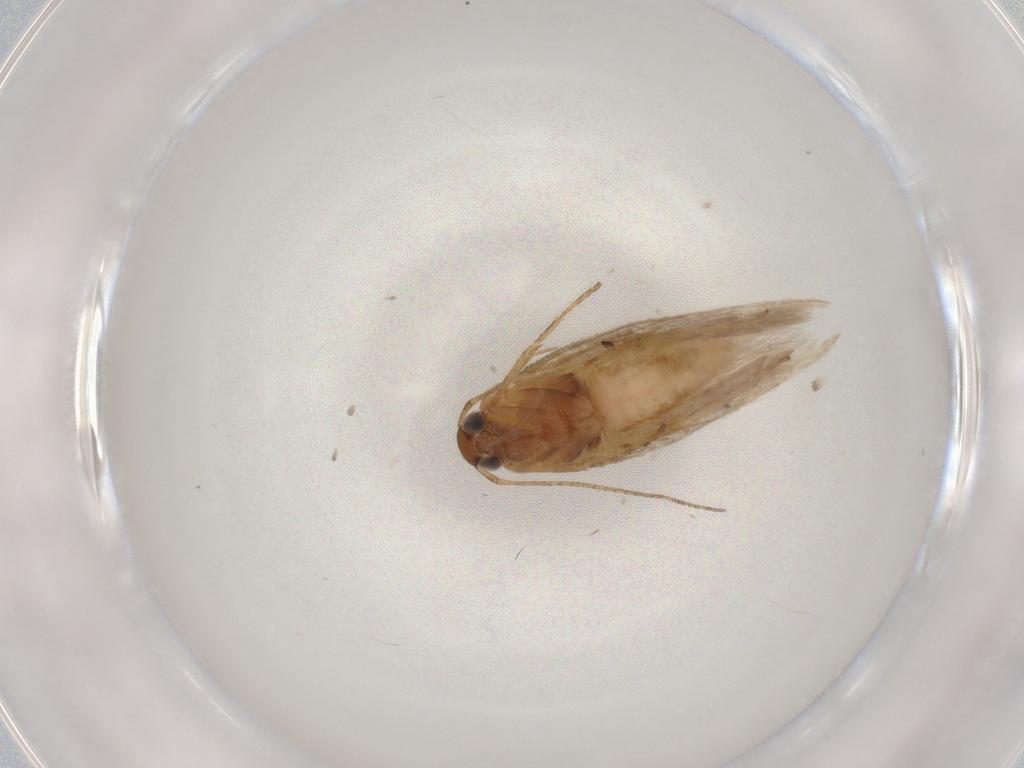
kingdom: Animalia
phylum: Arthropoda
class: Insecta
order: Lepidoptera
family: Gelechiidae
